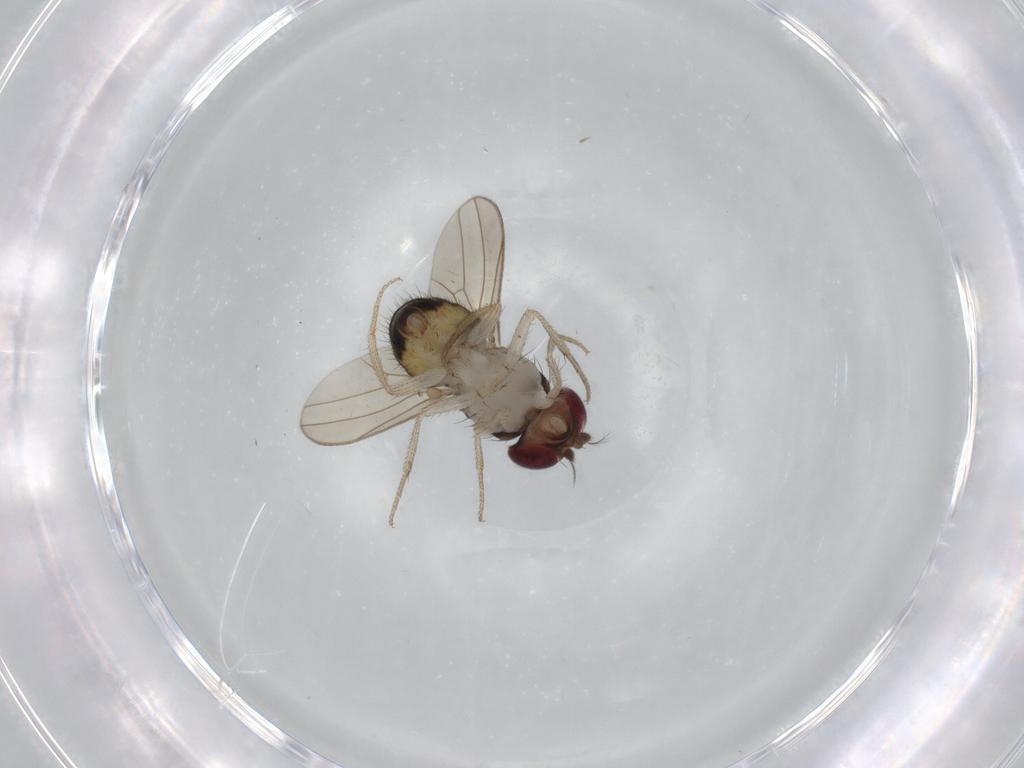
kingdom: Animalia
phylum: Arthropoda
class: Insecta
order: Diptera
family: Drosophilidae
